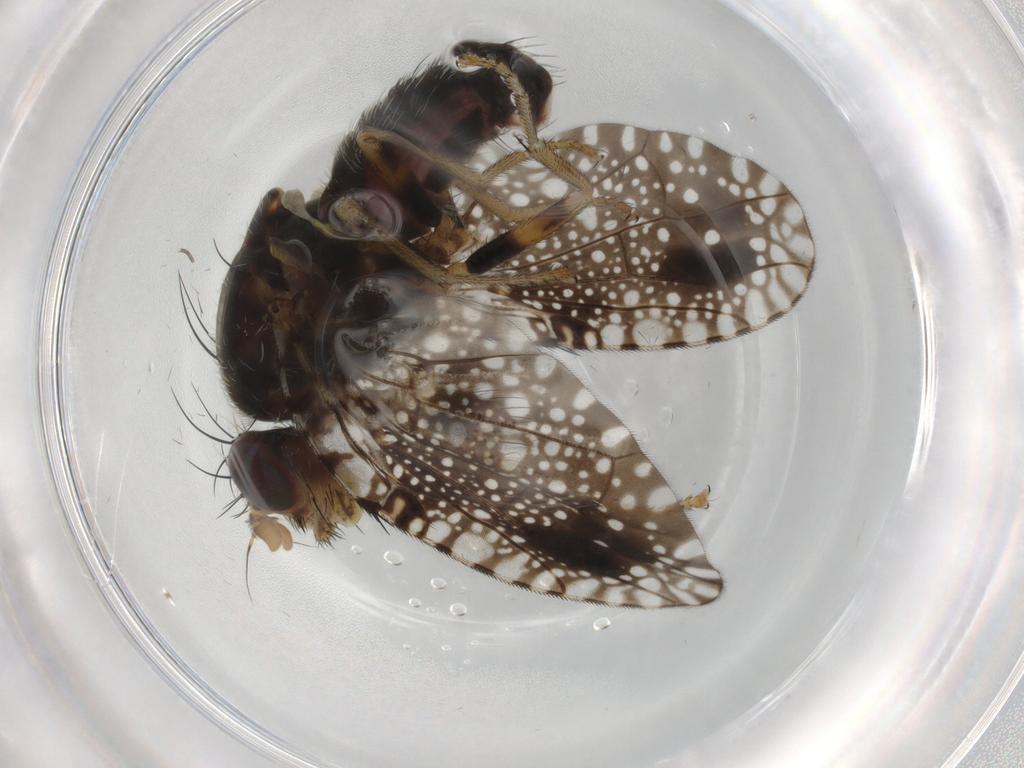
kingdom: Animalia
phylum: Arthropoda
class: Insecta
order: Diptera
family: Tephritidae
